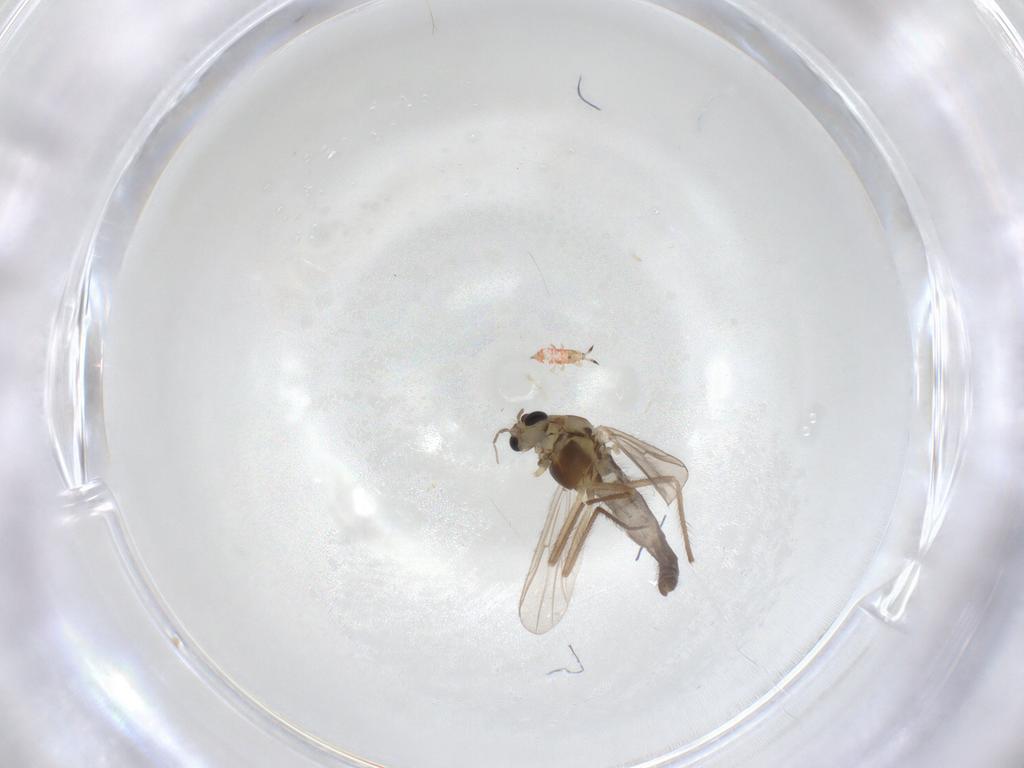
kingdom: Animalia
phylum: Arthropoda
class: Insecta
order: Diptera
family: Chironomidae
